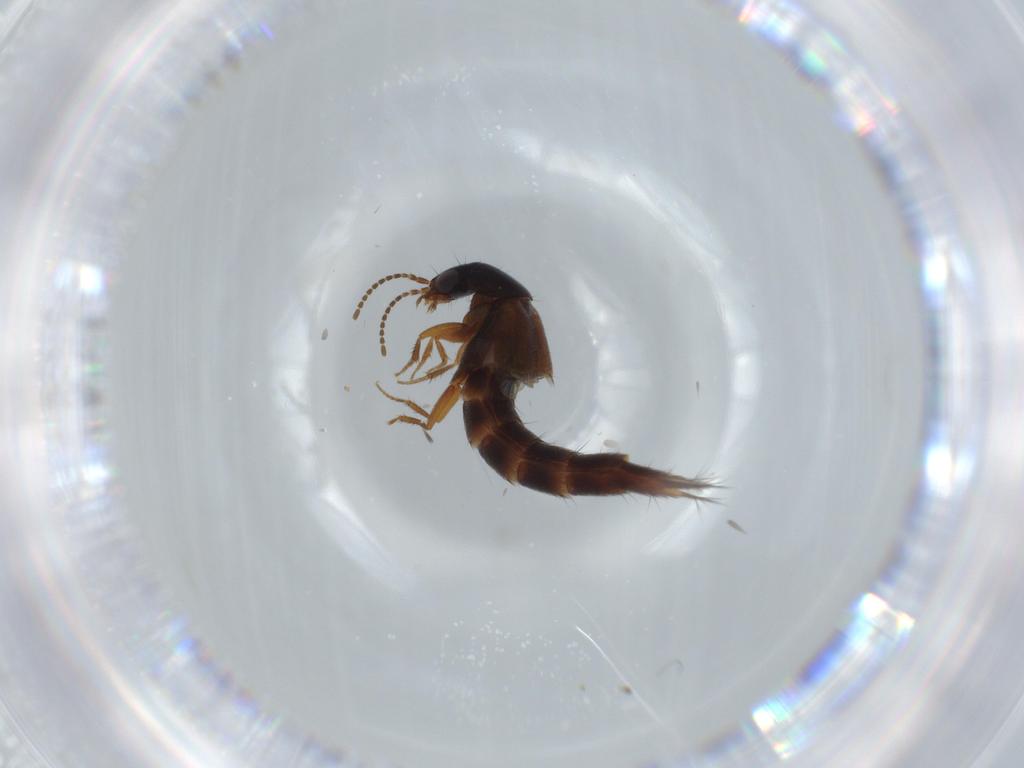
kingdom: Animalia
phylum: Arthropoda
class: Insecta
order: Coleoptera
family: Chrysomelidae
